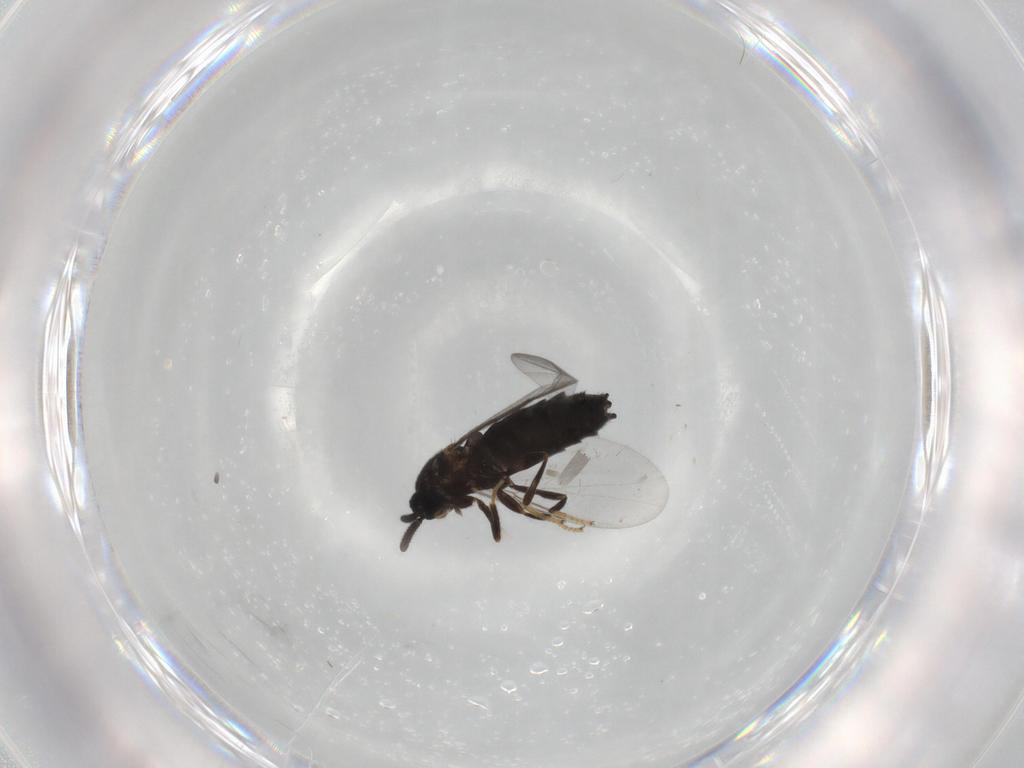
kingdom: Animalia
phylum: Arthropoda
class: Insecta
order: Diptera
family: Scatopsidae
